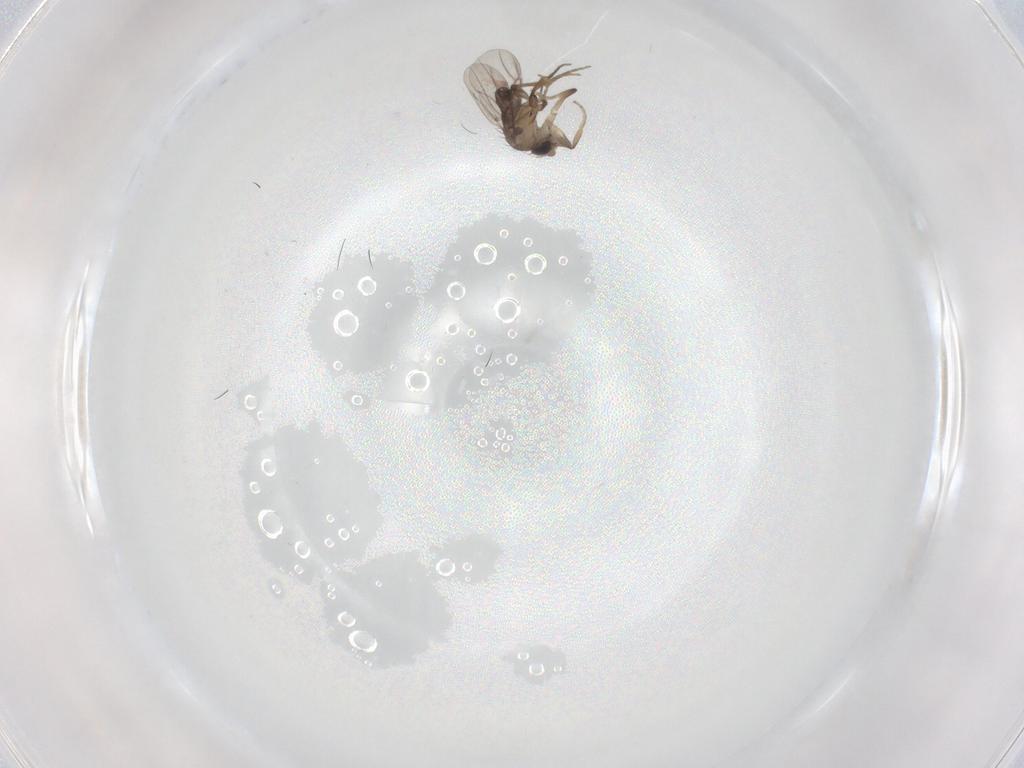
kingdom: Animalia
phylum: Arthropoda
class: Insecta
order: Diptera
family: Phoridae
